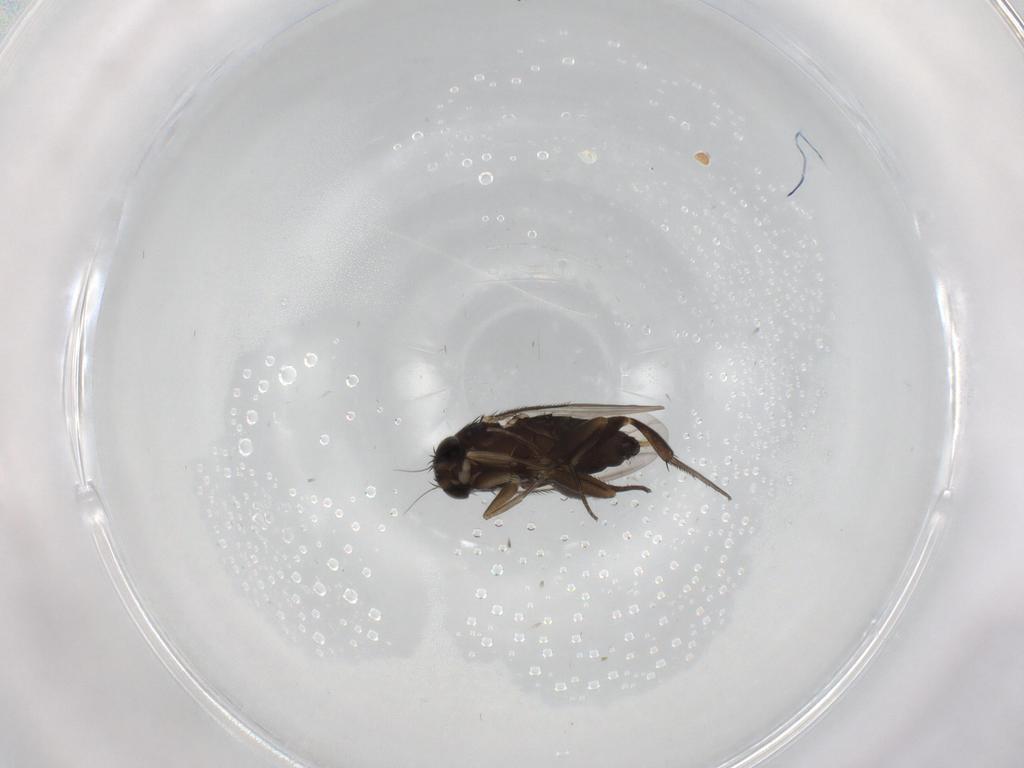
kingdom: Animalia
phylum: Arthropoda
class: Insecta
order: Diptera
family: Phoridae
